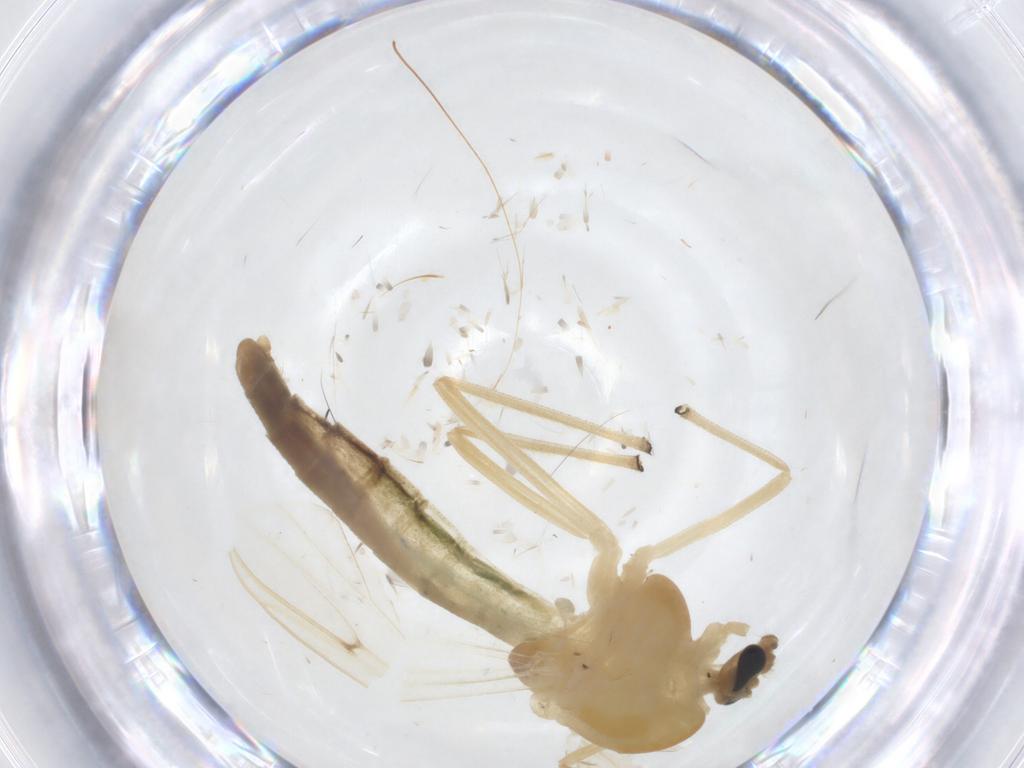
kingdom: Animalia
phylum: Arthropoda
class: Insecta
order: Diptera
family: Chironomidae
